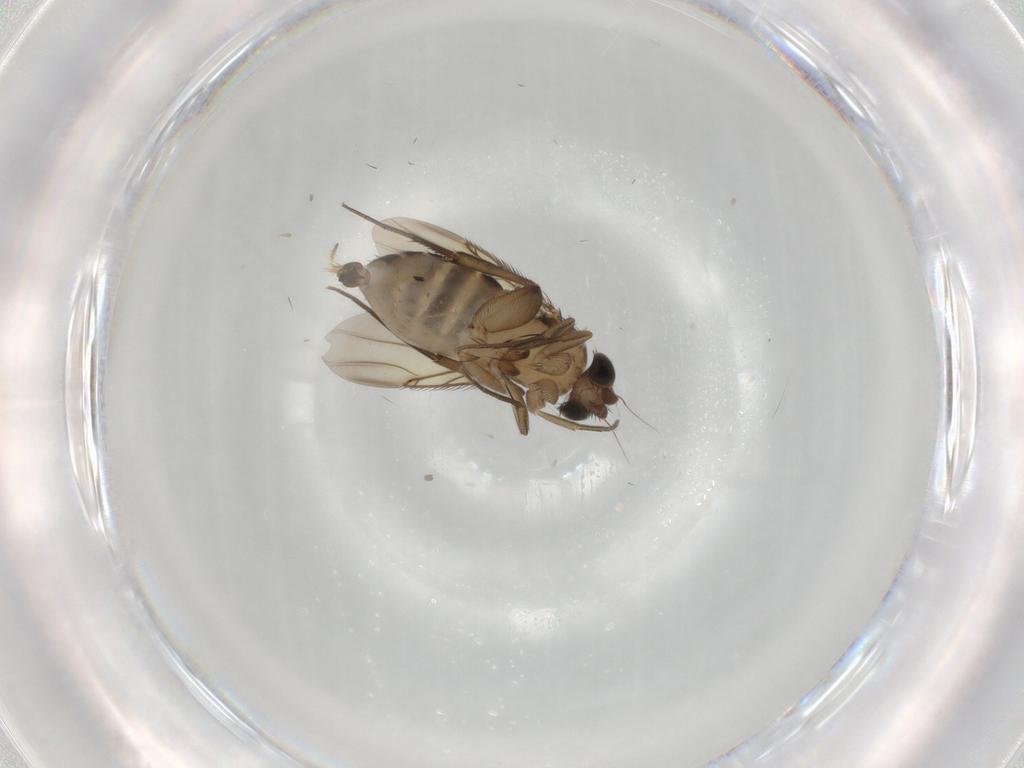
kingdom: Animalia
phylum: Arthropoda
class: Insecta
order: Diptera
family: Phoridae
